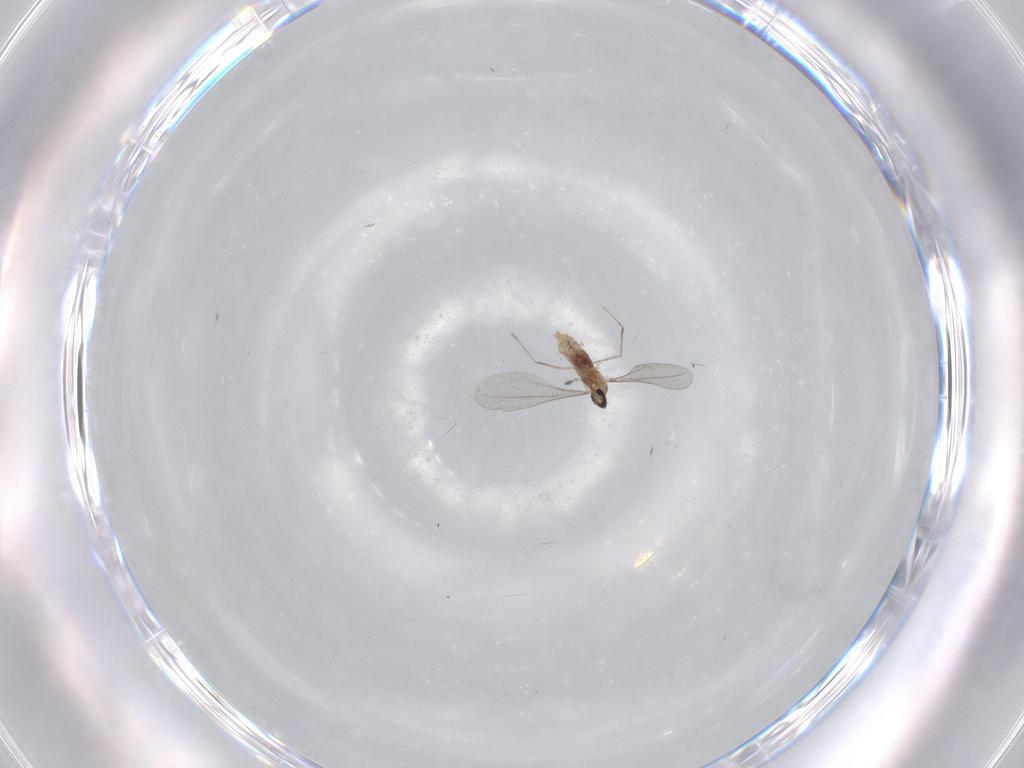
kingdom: Animalia
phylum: Arthropoda
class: Insecta
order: Diptera
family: Cecidomyiidae
